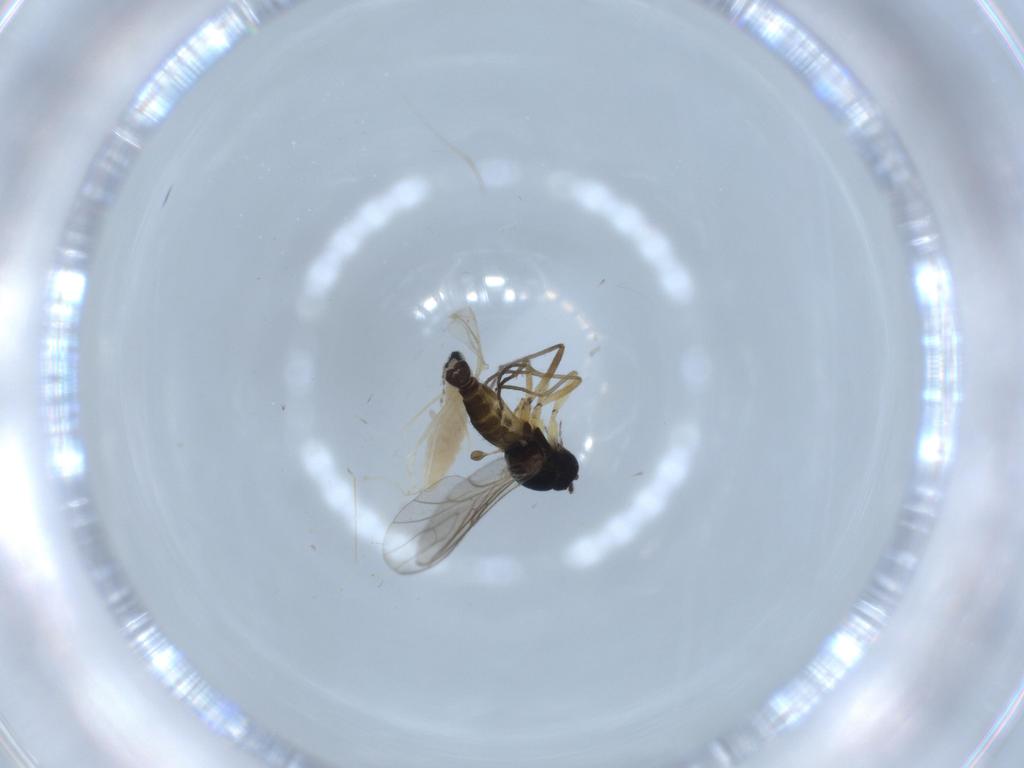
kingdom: Animalia
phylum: Arthropoda
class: Insecta
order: Diptera
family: Cecidomyiidae
